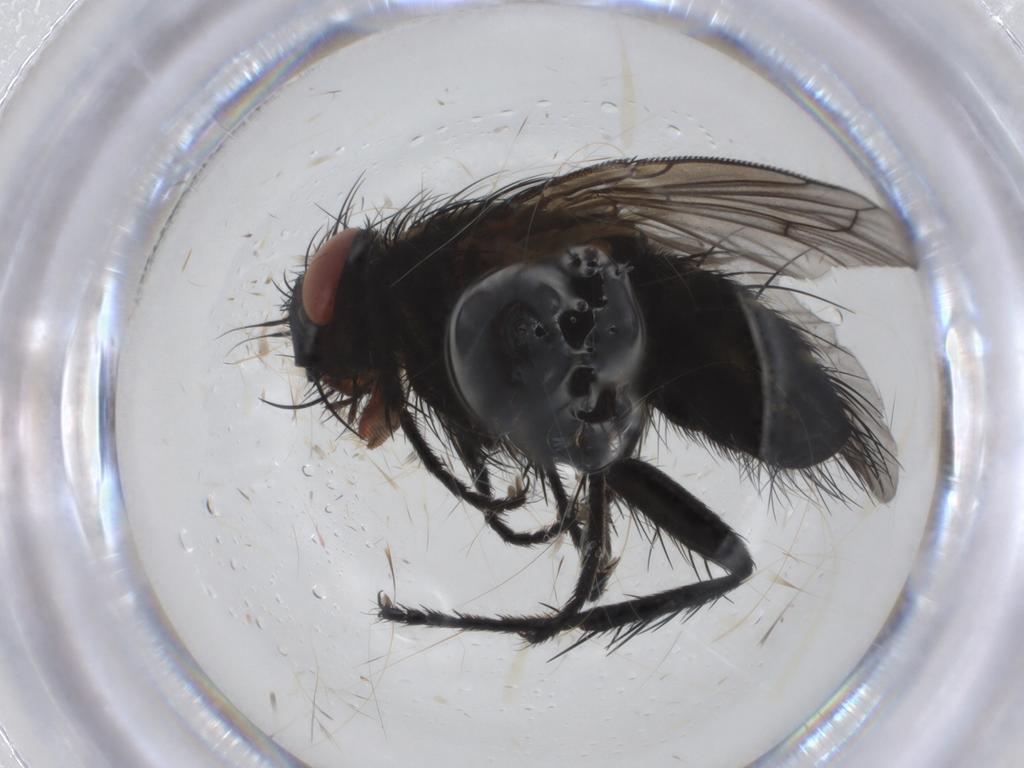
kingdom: Animalia
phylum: Arthropoda
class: Insecta
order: Diptera
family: Tachinidae
